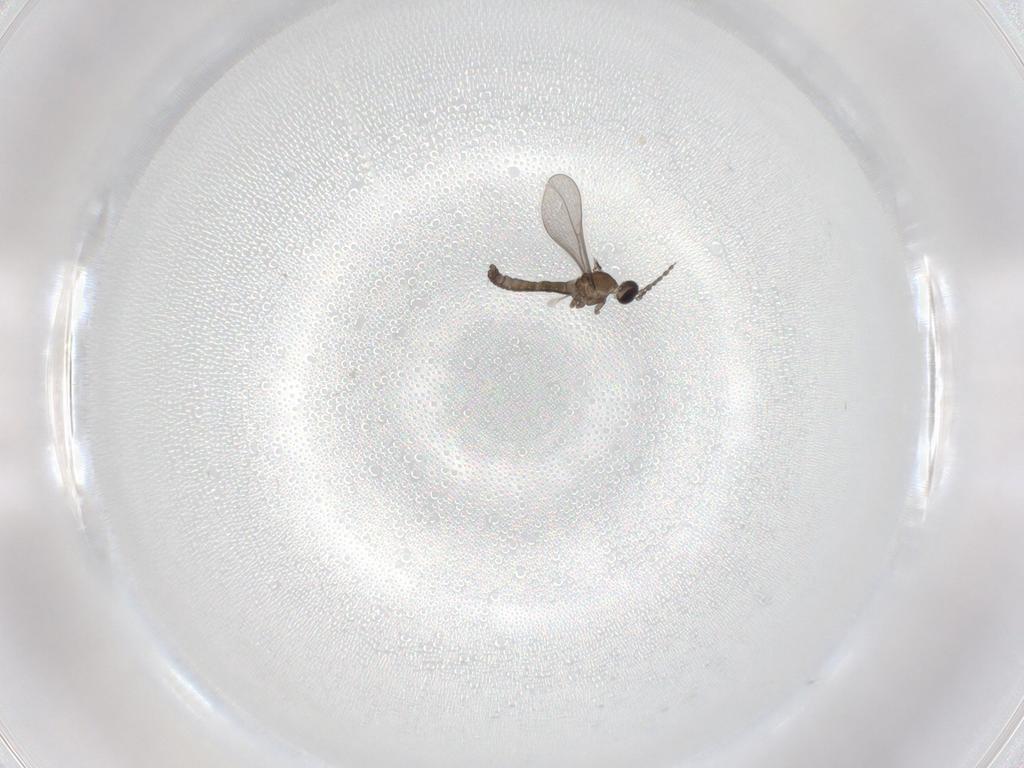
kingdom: Animalia
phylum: Arthropoda
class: Insecta
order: Diptera
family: Cecidomyiidae
